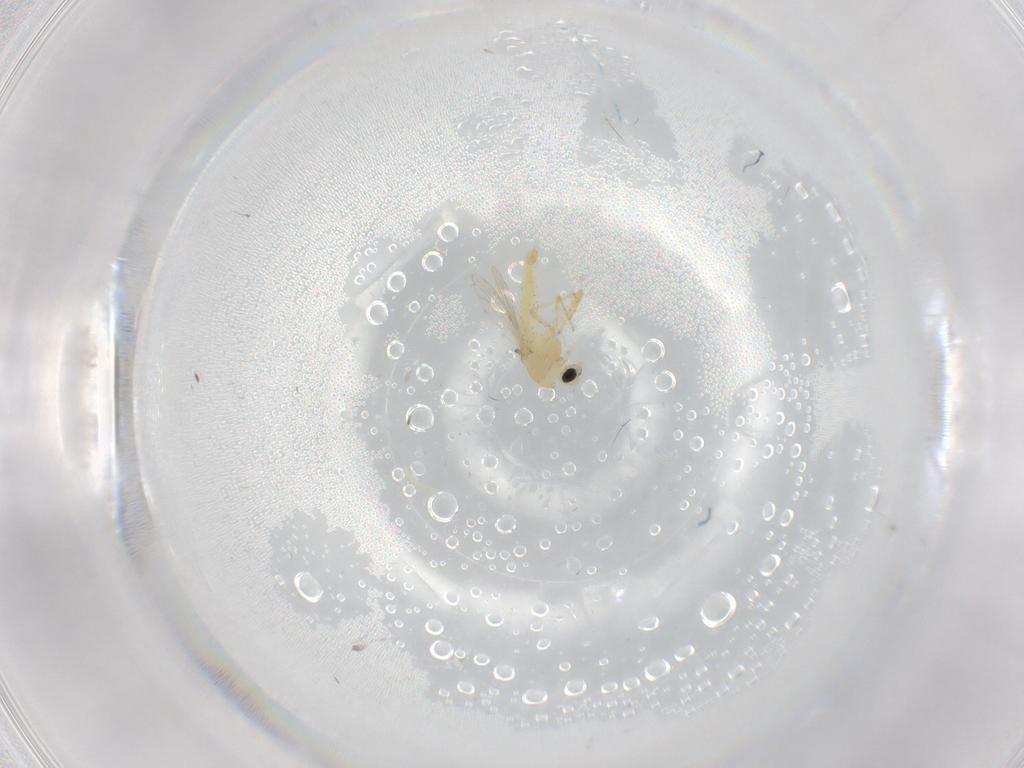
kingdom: Animalia
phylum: Arthropoda
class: Insecta
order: Diptera
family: Chironomidae
